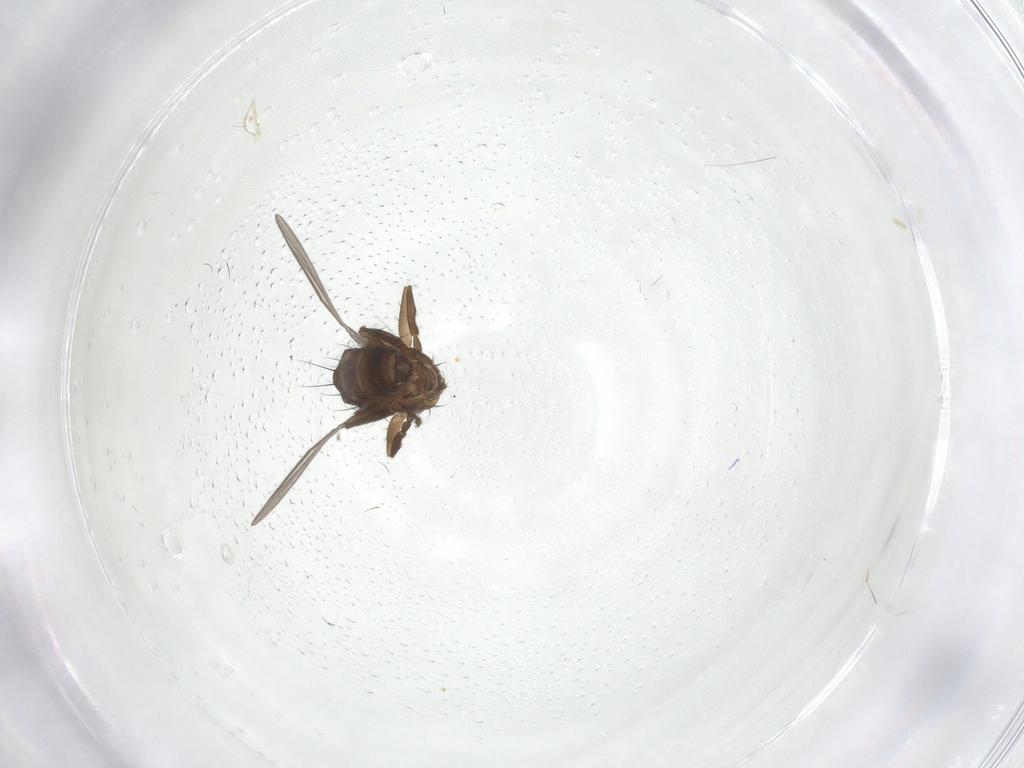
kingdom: Animalia
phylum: Arthropoda
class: Insecta
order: Diptera
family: Sphaeroceridae
